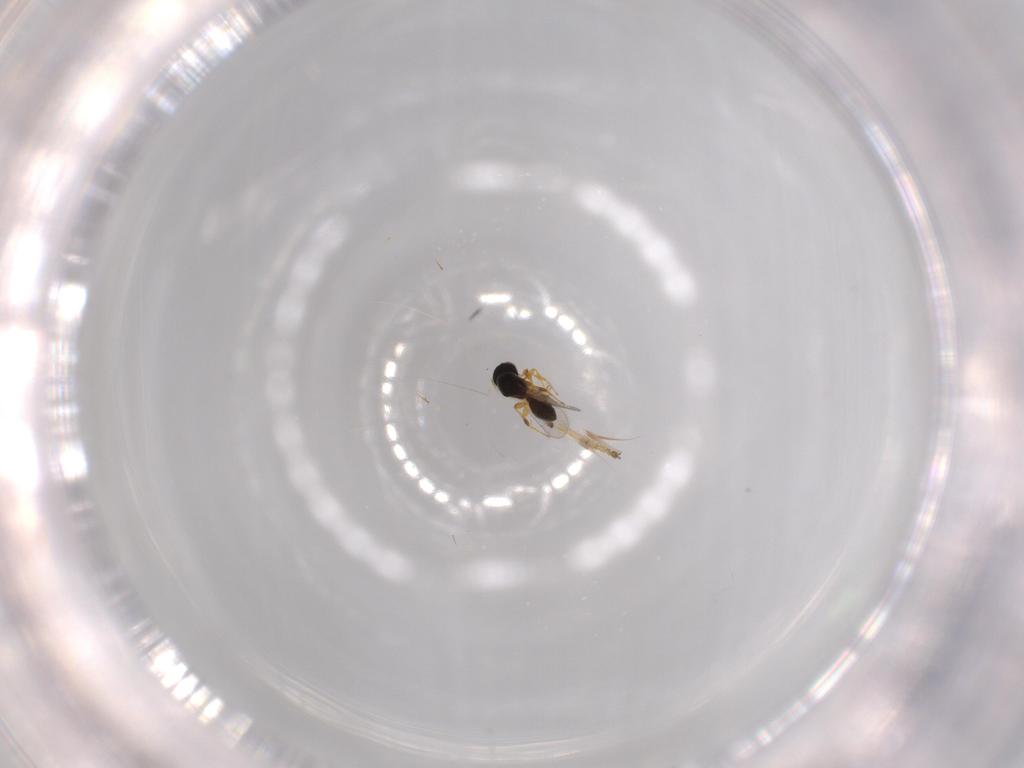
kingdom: Animalia
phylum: Arthropoda
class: Insecta
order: Hymenoptera
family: Platygastridae
